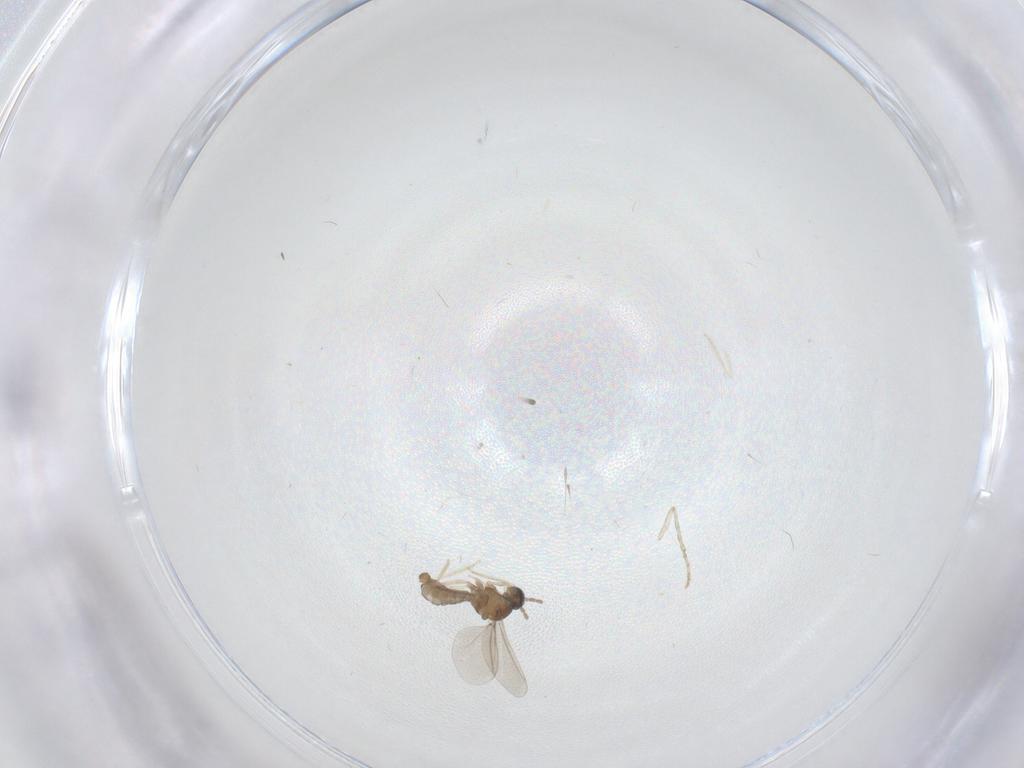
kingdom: Animalia
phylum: Arthropoda
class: Insecta
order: Diptera
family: Cecidomyiidae
